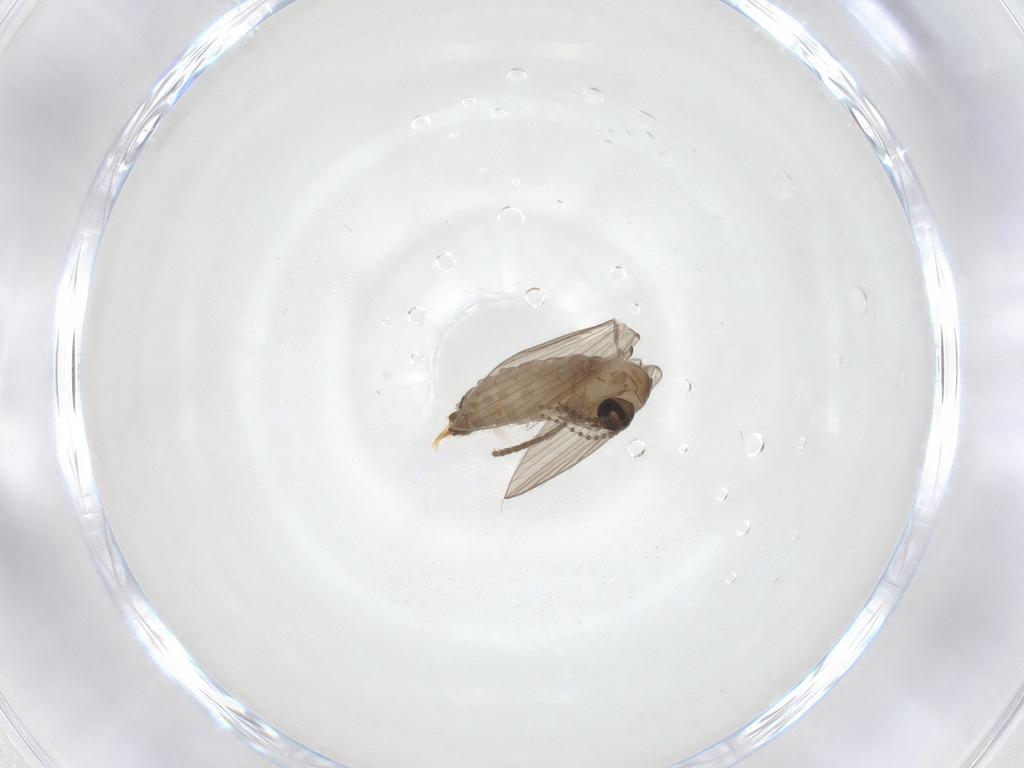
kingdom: Animalia
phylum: Arthropoda
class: Insecta
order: Diptera
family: Psychodidae
